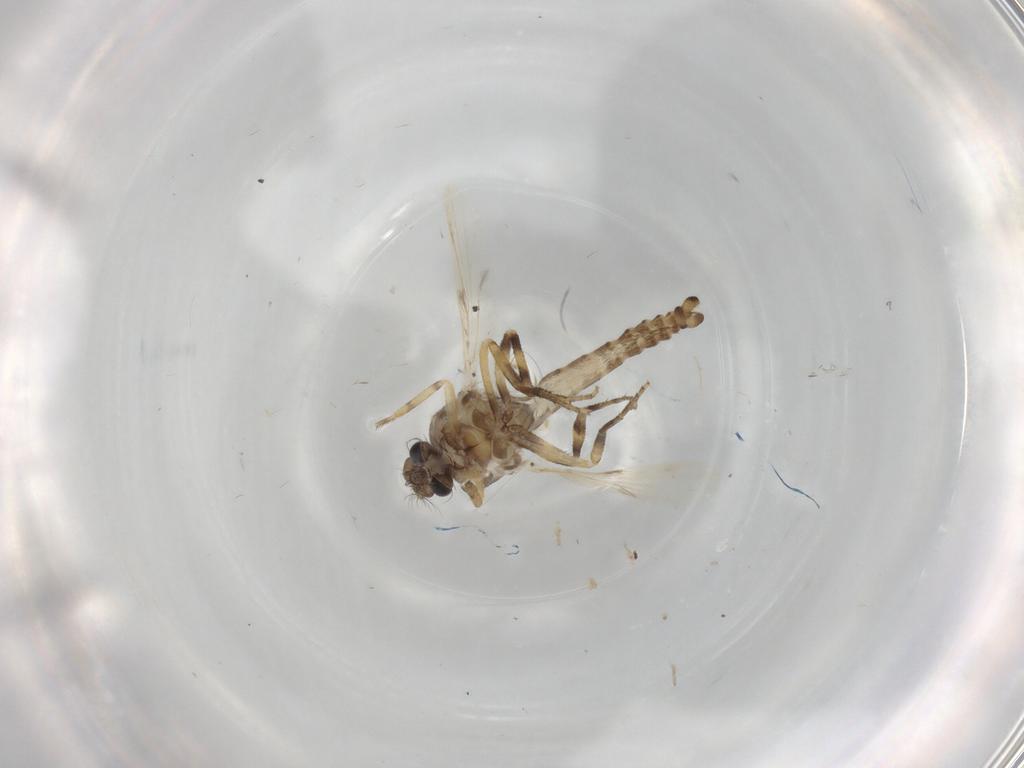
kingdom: Animalia
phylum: Arthropoda
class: Insecta
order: Diptera
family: Ceratopogonidae
